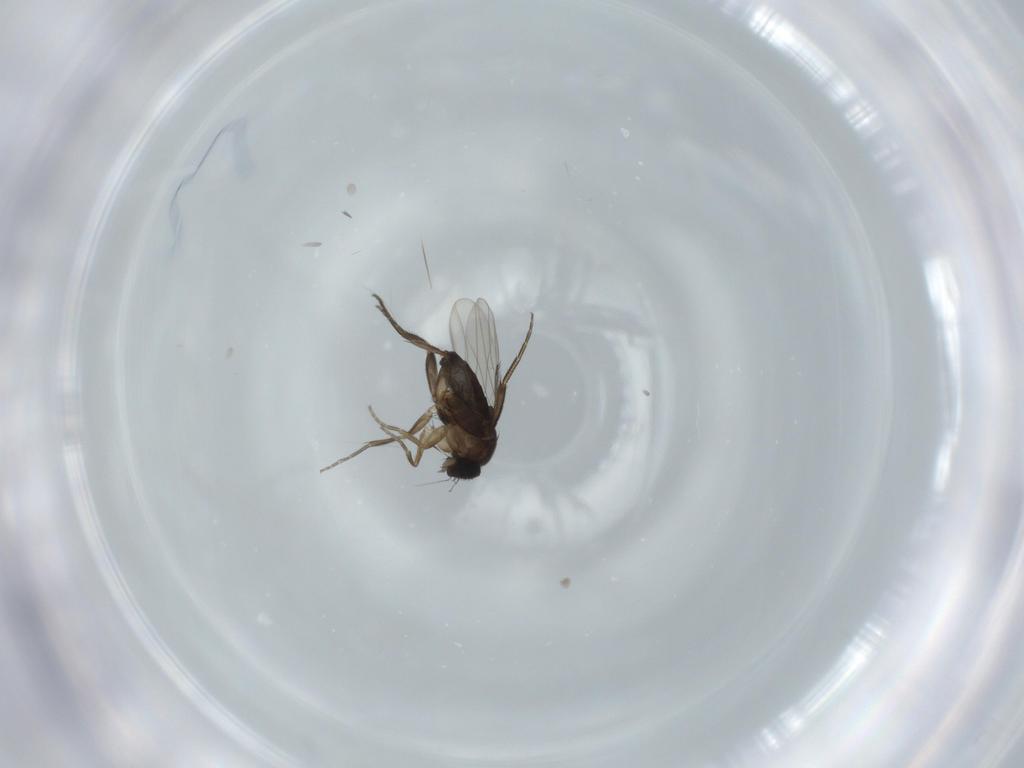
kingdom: Animalia
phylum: Arthropoda
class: Insecta
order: Diptera
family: Phoridae
